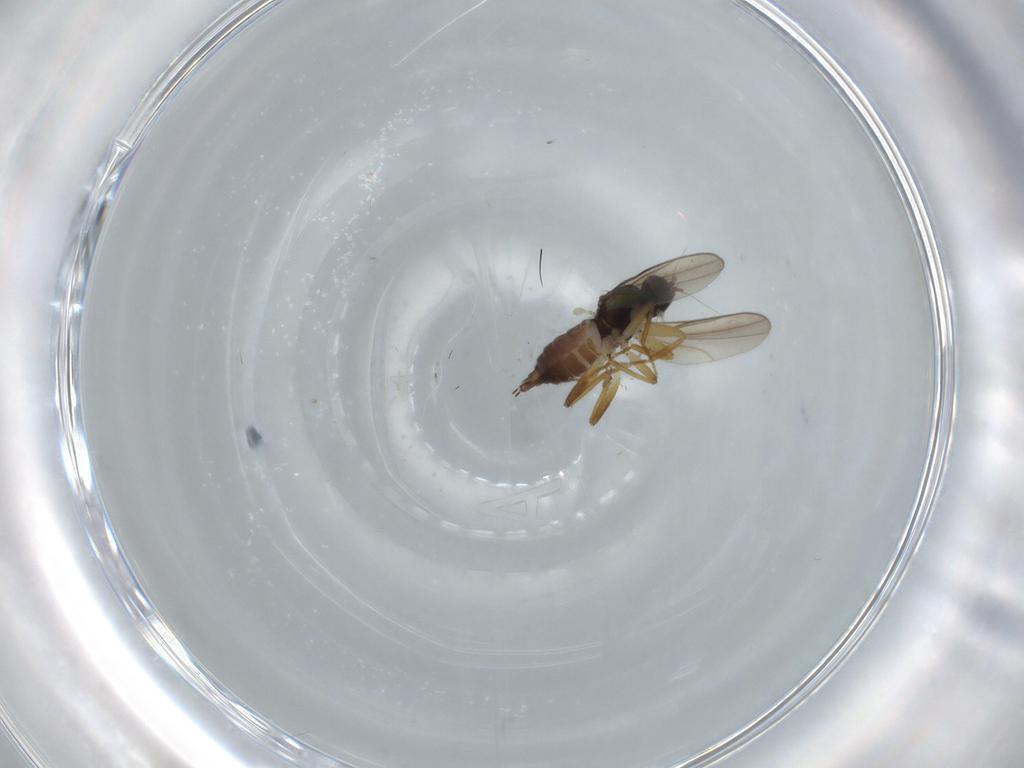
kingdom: Animalia
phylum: Arthropoda
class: Insecta
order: Diptera
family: Hybotidae
